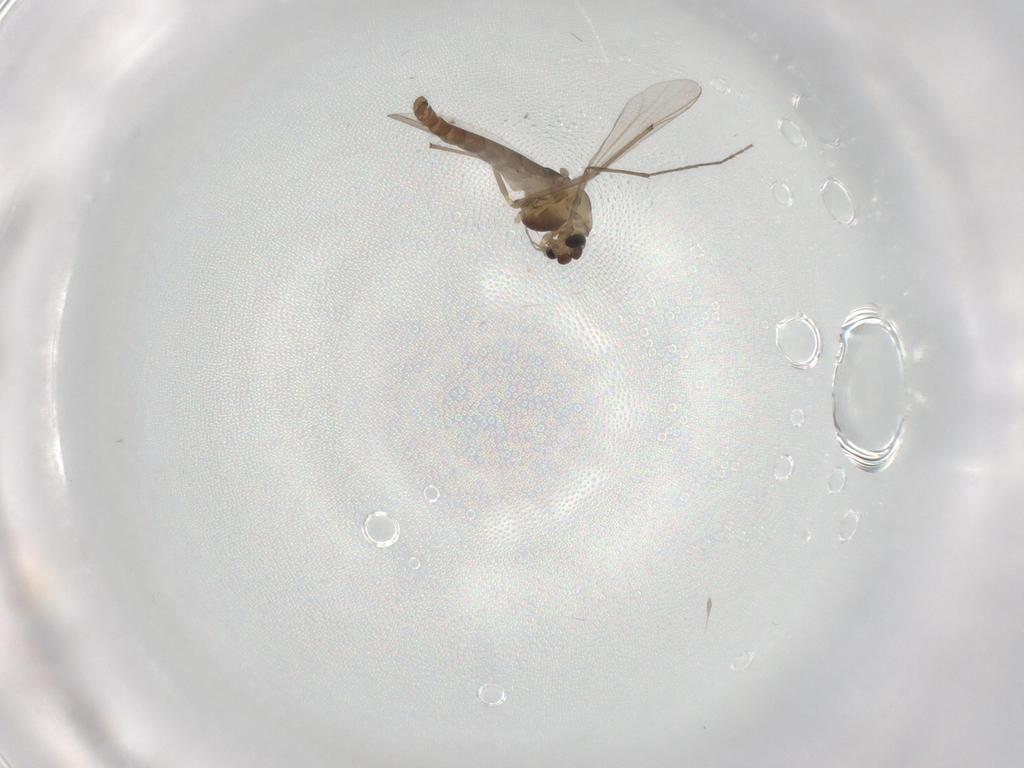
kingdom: Animalia
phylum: Arthropoda
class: Insecta
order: Diptera
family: Chironomidae
